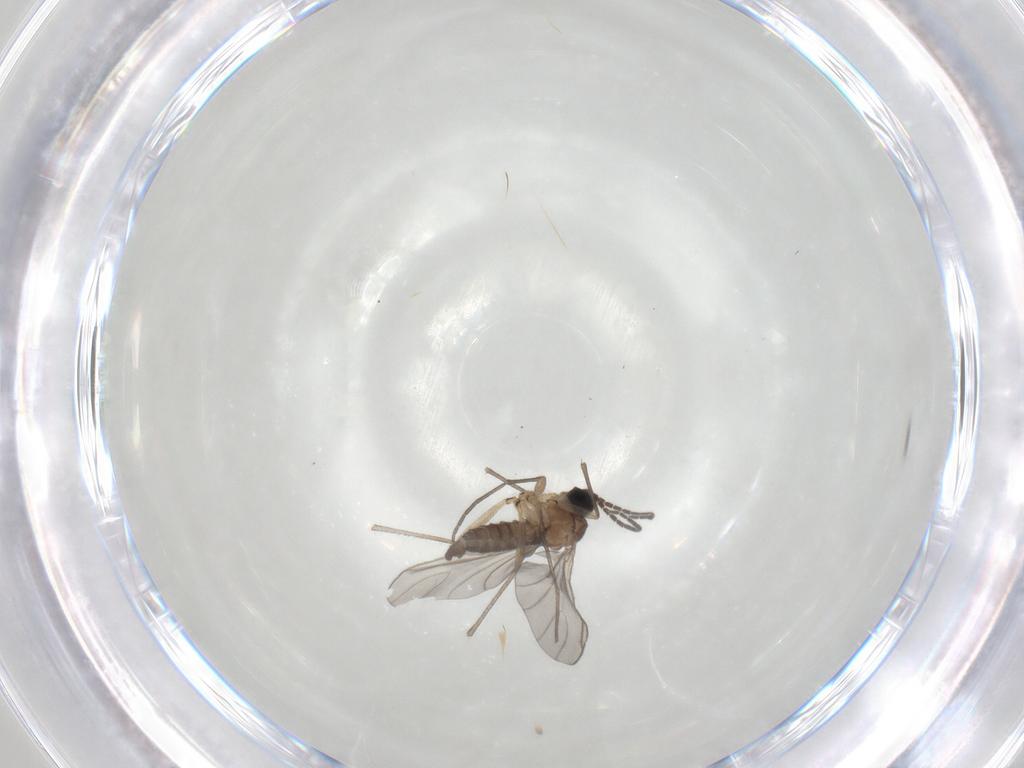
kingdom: Animalia
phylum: Arthropoda
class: Insecta
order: Diptera
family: Sciaridae
